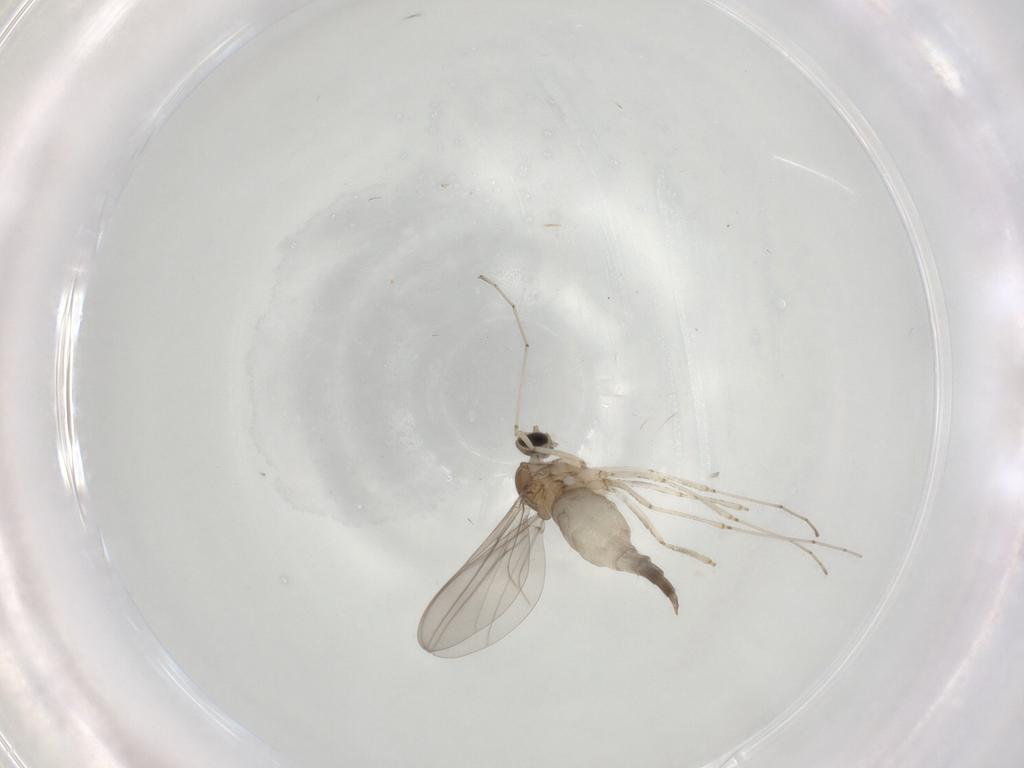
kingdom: Animalia
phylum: Arthropoda
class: Insecta
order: Diptera
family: Cecidomyiidae
